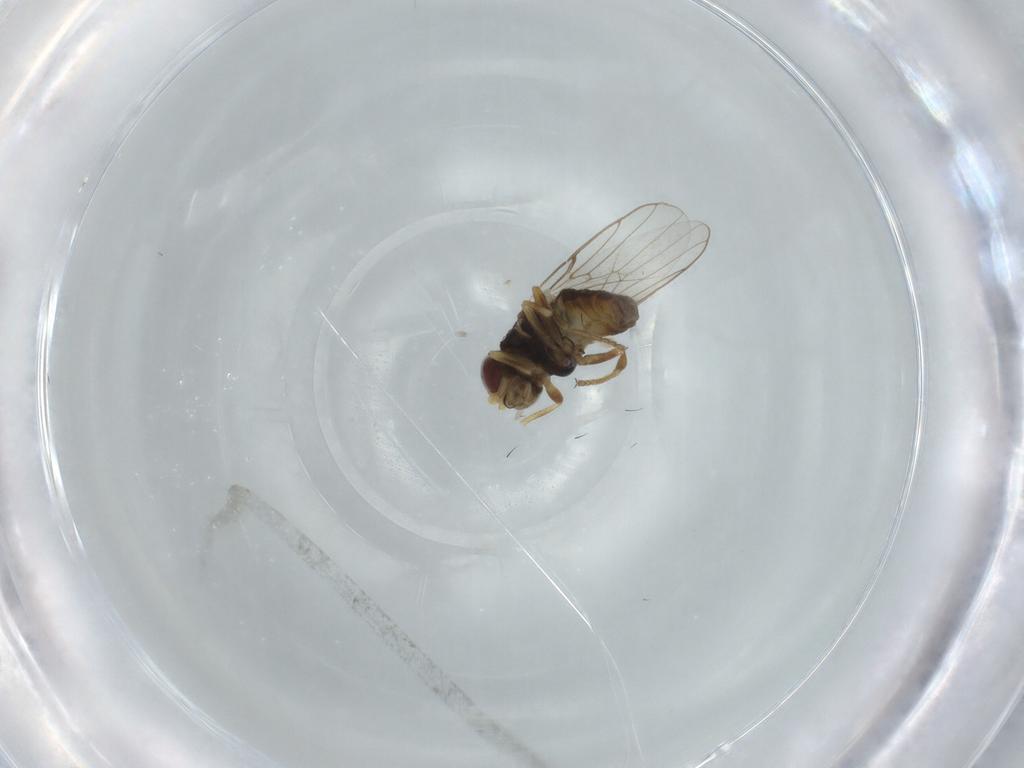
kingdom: Animalia
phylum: Arthropoda
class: Insecta
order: Diptera
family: Chloropidae
